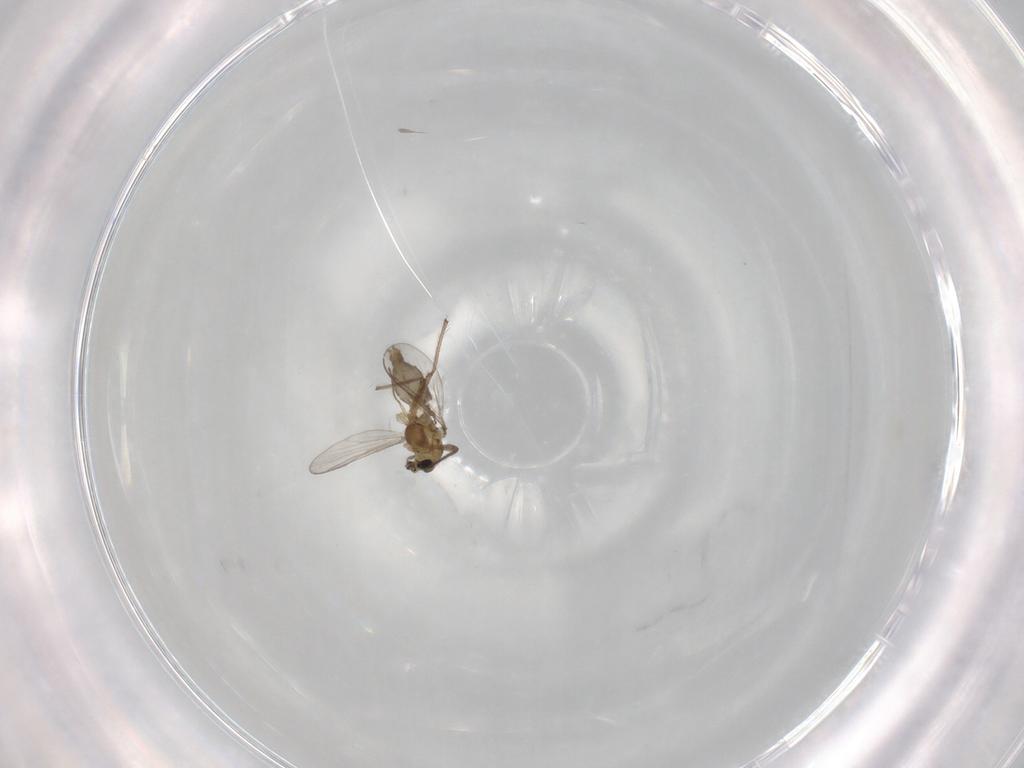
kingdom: Animalia
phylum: Arthropoda
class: Insecta
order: Diptera
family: Chironomidae
